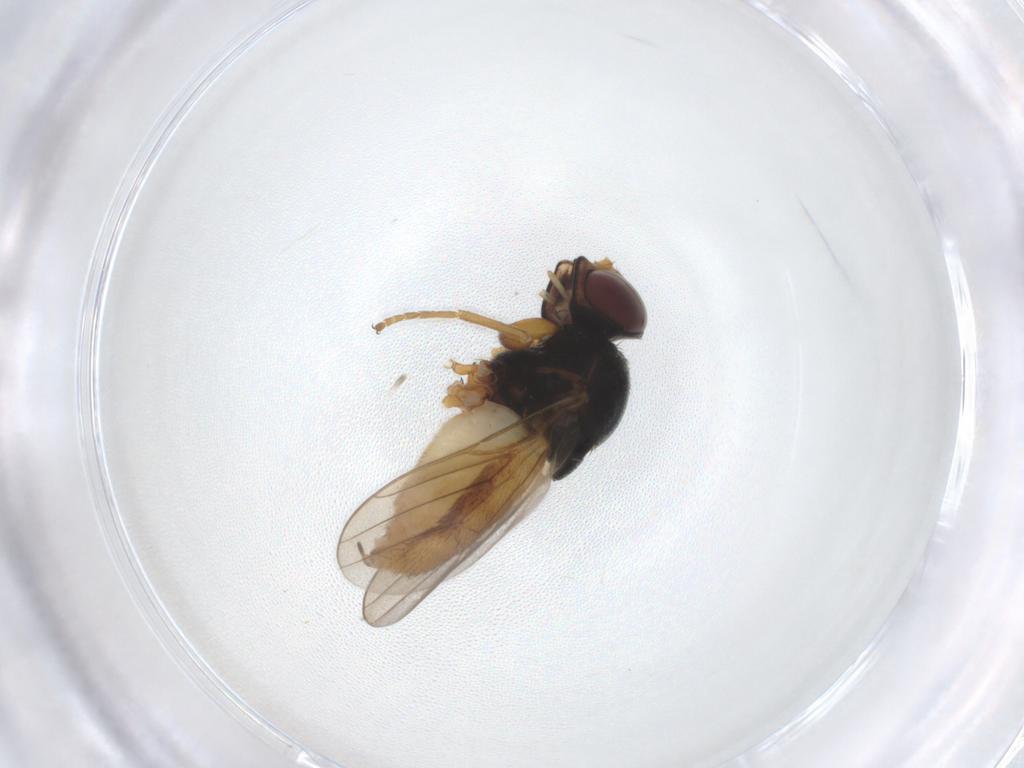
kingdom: Animalia
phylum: Arthropoda
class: Insecta
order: Diptera
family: Chloropidae
